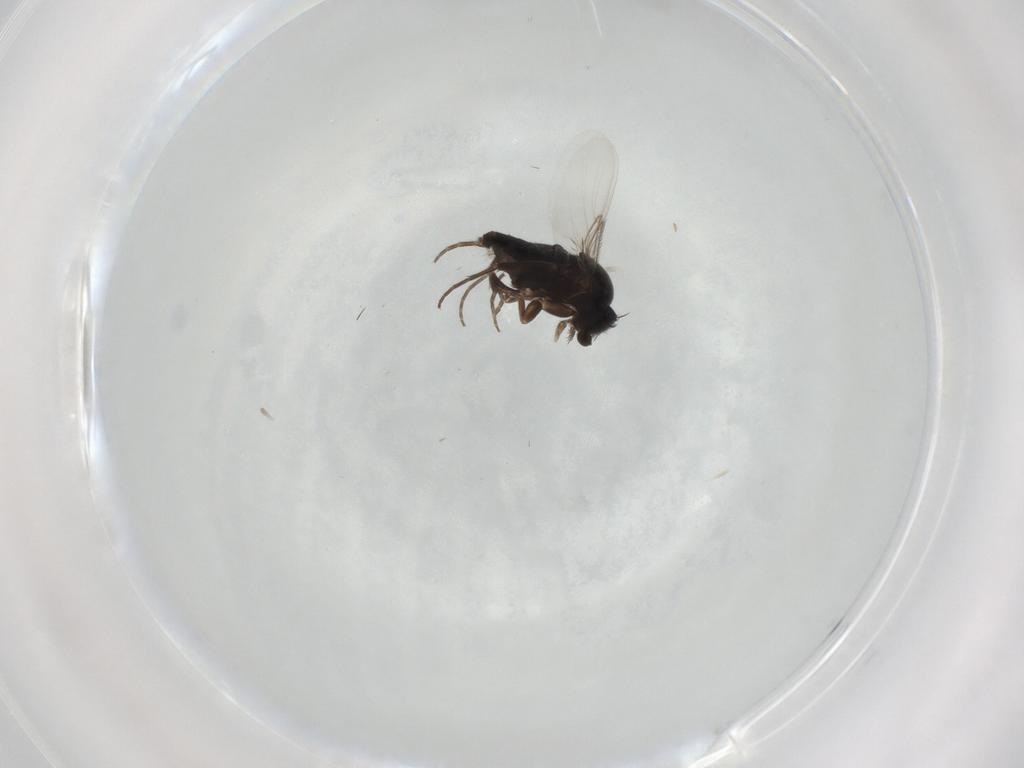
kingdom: Animalia
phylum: Arthropoda
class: Insecta
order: Diptera
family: Phoridae
